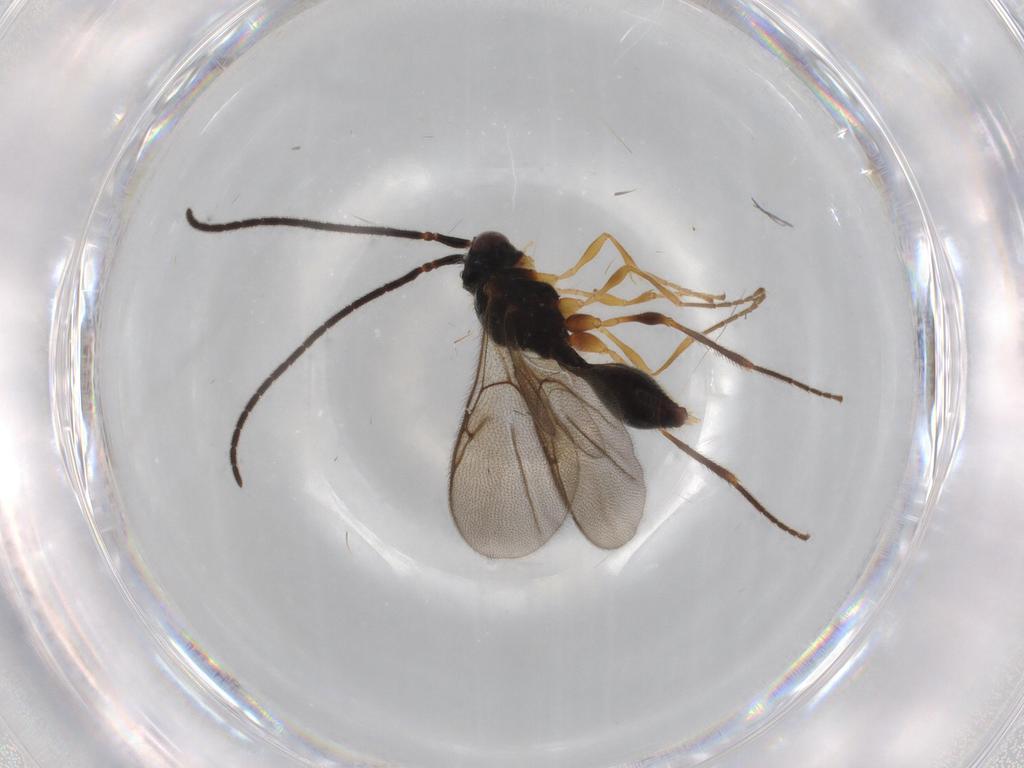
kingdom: Animalia
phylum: Arthropoda
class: Insecta
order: Hymenoptera
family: Diapriidae
